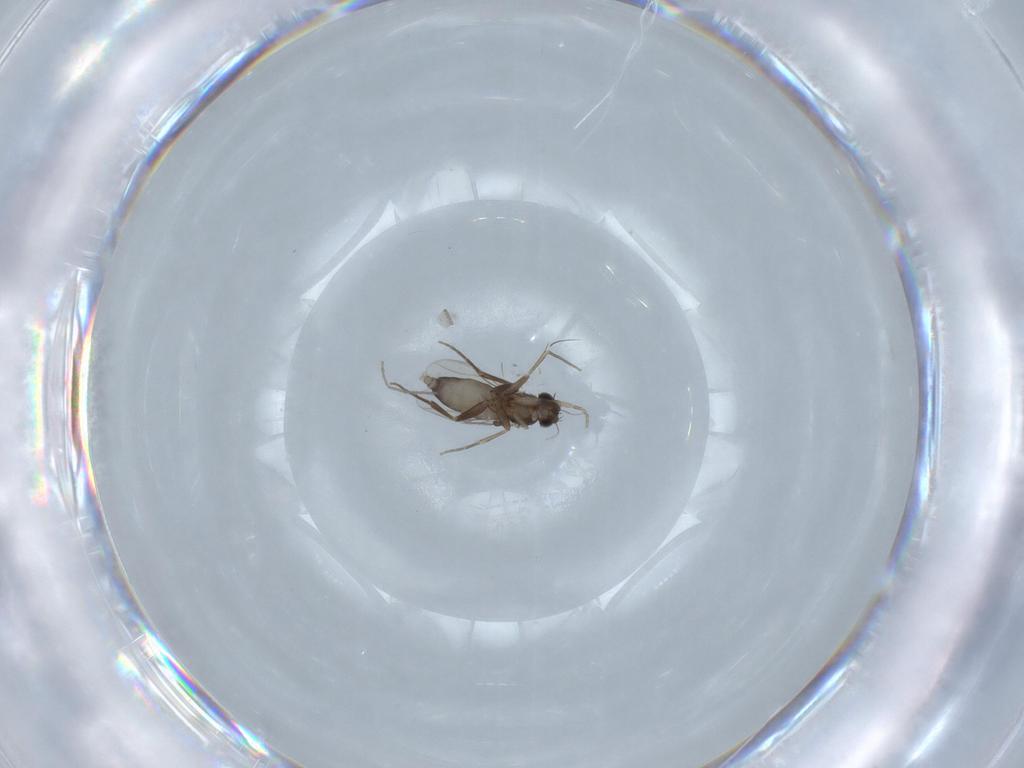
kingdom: Animalia
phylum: Arthropoda
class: Insecta
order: Diptera
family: Phoridae
